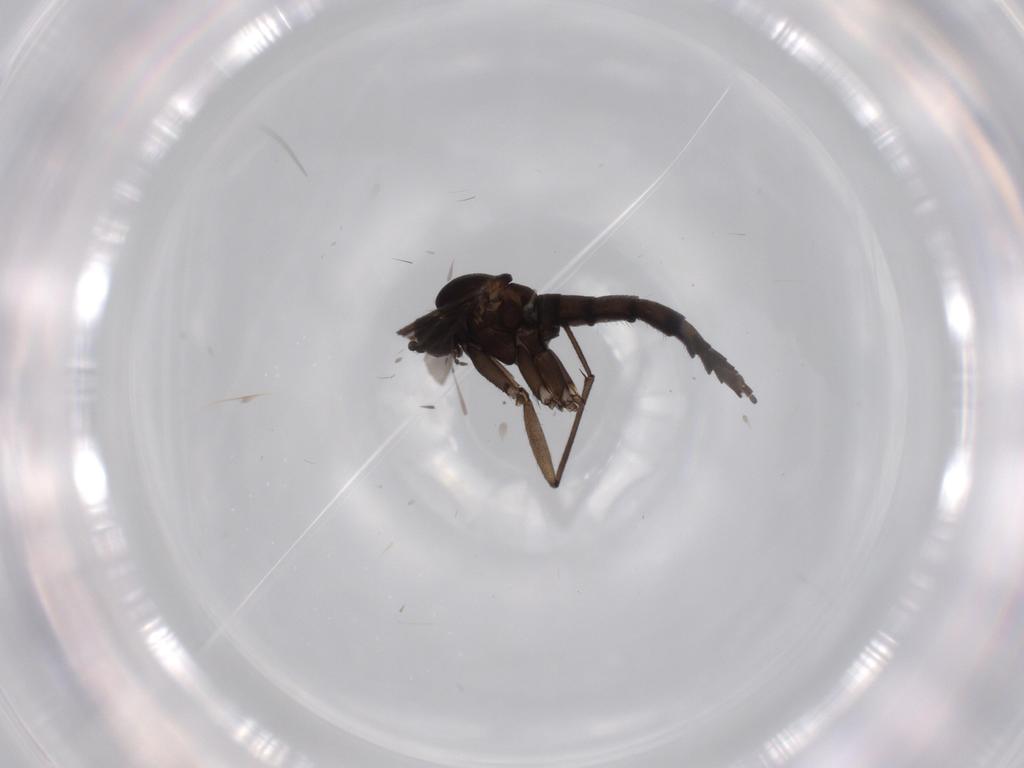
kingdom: Animalia
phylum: Arthropoda
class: Insecta
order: Diptera
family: Sciaridae
